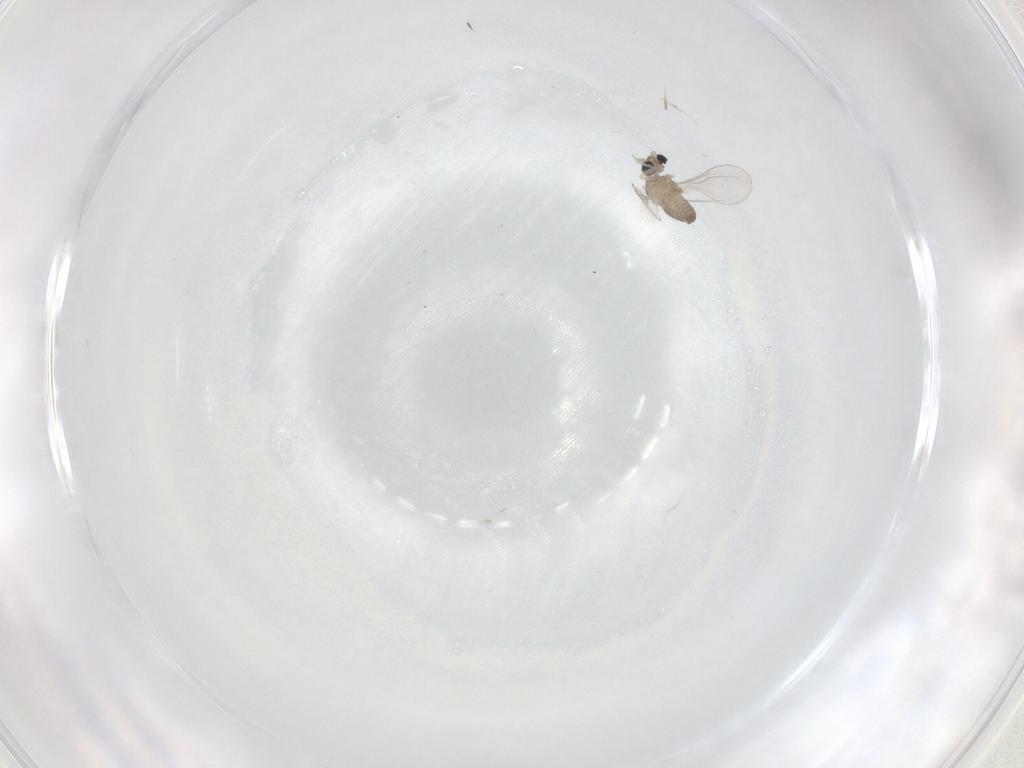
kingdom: Animalia
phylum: Arthropoda
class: Insecta
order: Diptera
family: Cecidomyiidae
